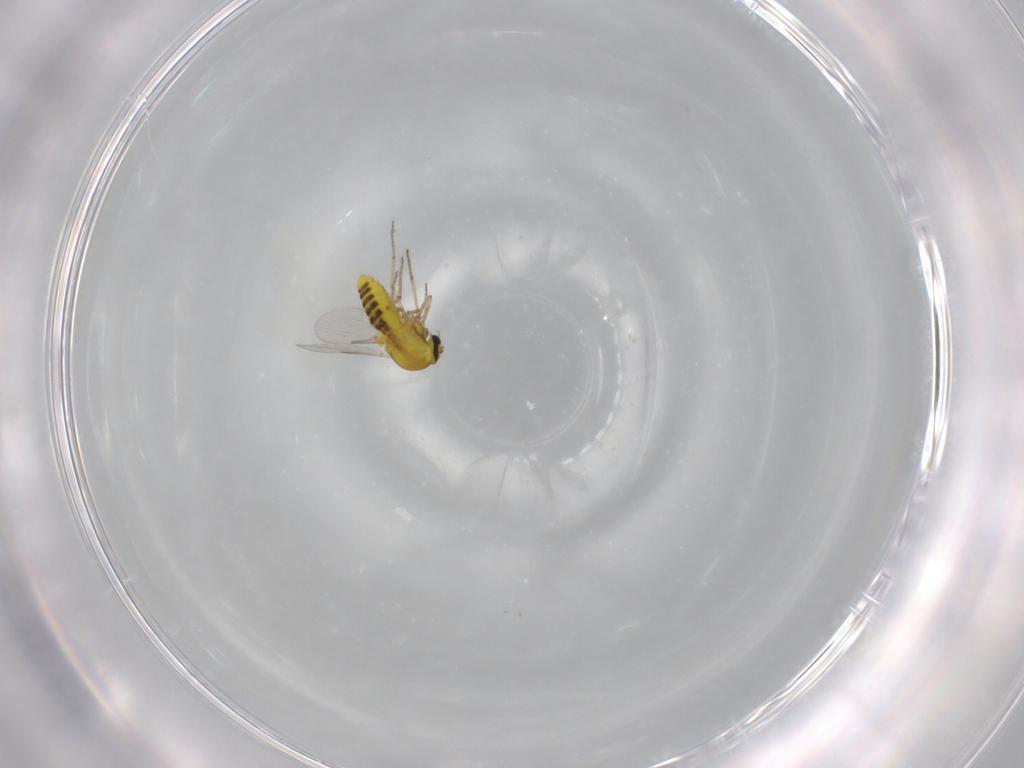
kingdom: Animalia
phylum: Arthropoda
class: Insecta
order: Diptera
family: Ceratopogonidae
